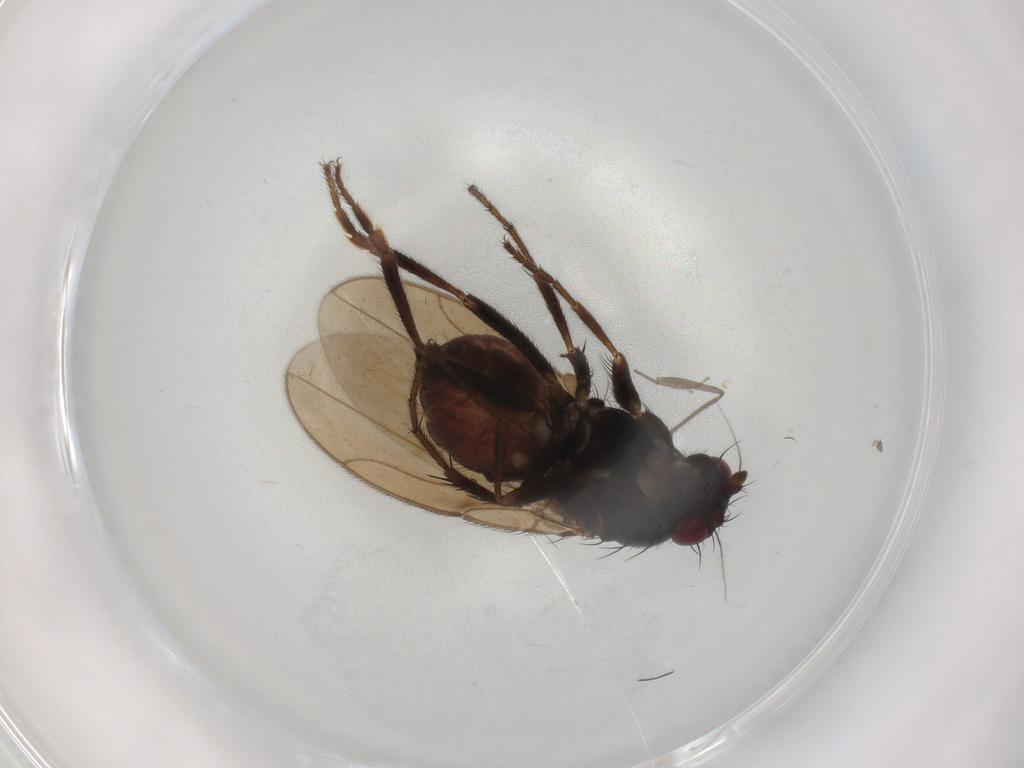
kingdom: Animalia
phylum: Arthropoda
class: Insecta
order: Diptera
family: Sphaeroceridae
